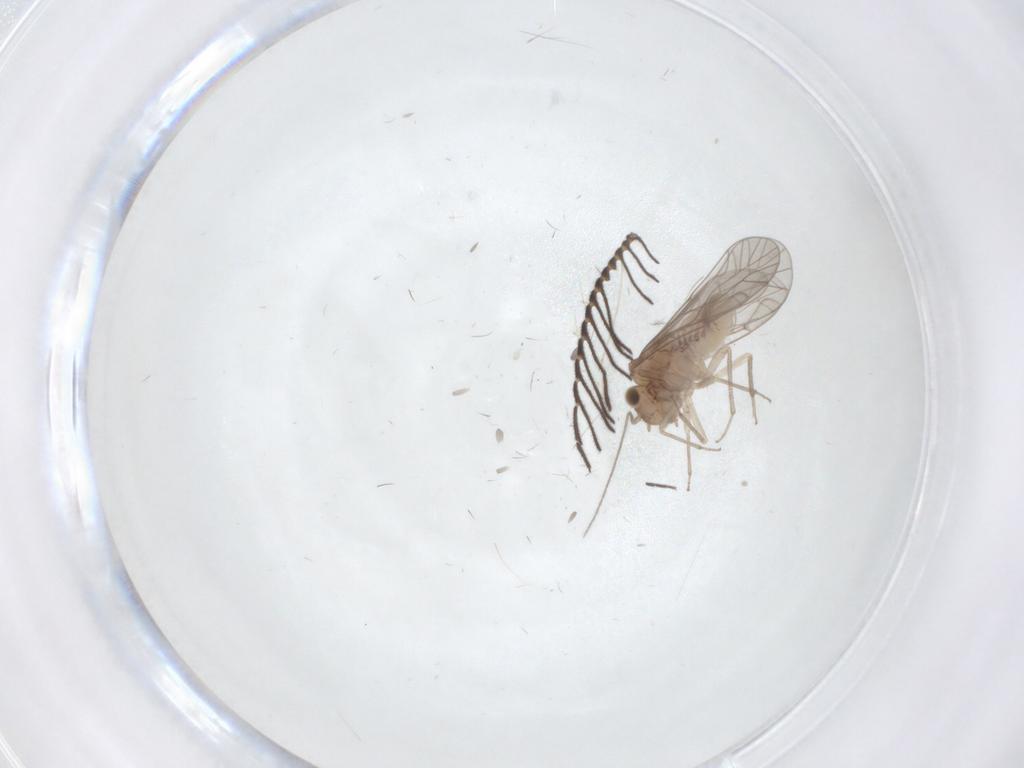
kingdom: Animalia
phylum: Arthropoda
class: Insecta
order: Psocodea
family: Lachesillidae
